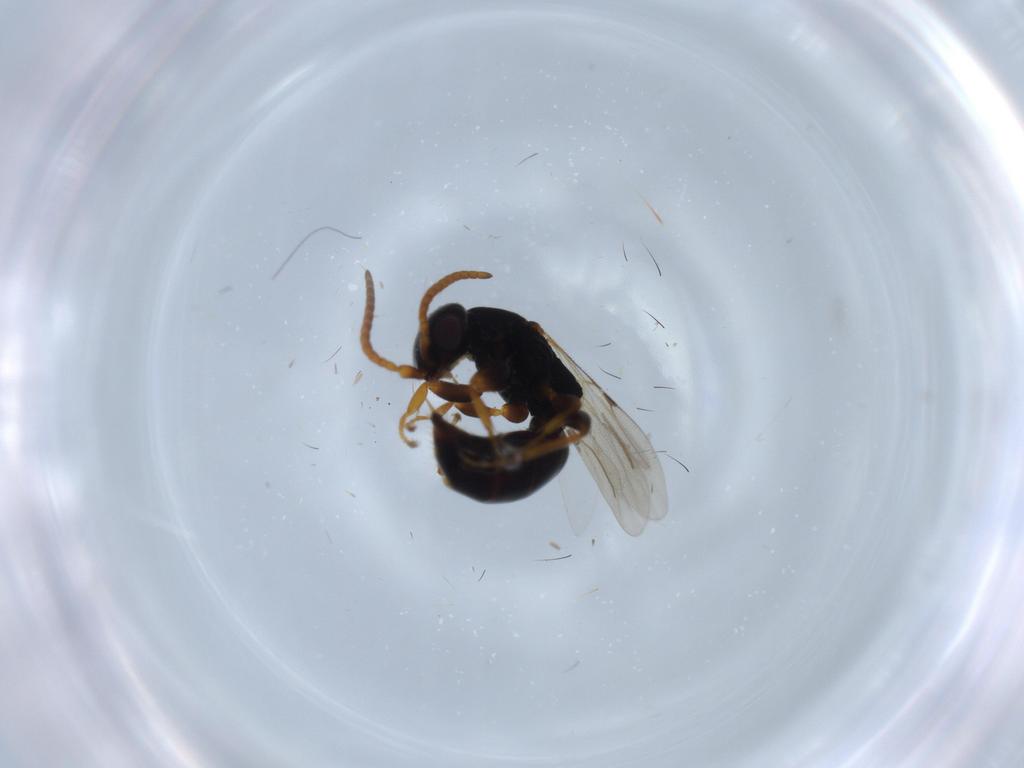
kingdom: Animalia
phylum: Arthropoda
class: Insecta
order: Hymenoptera
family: Bethylidae
